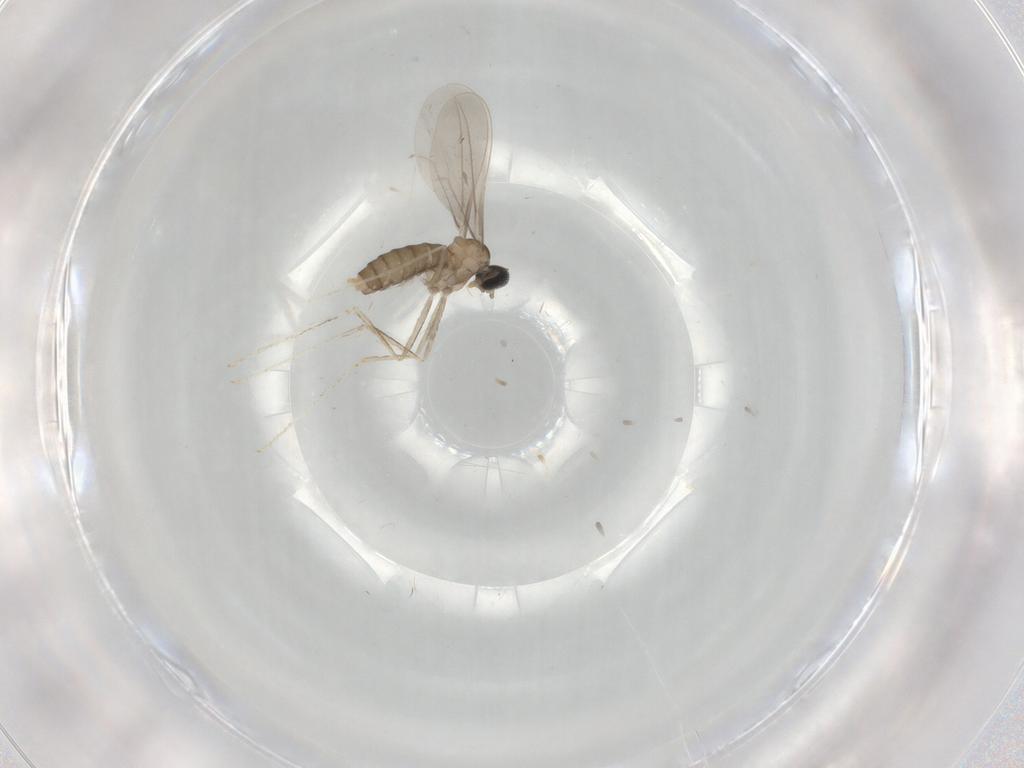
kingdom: Animalia
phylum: Arthropoda
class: Insecta
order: Diptera
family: Cecidomyiidae
